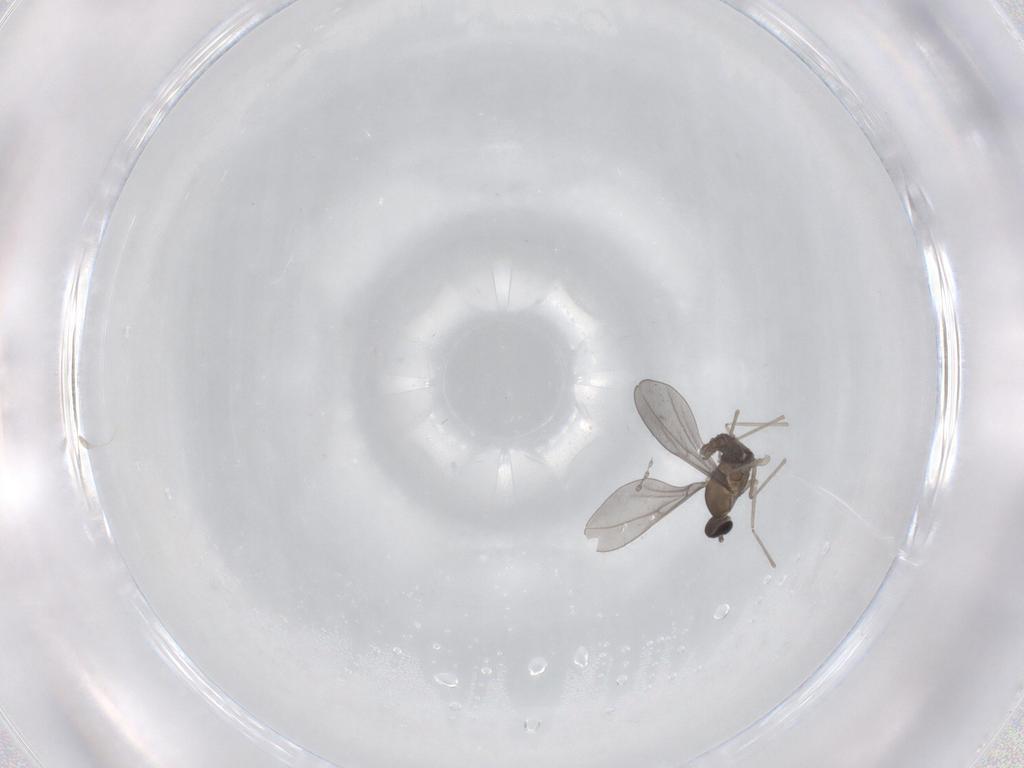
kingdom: Animalia
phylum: Arthropoda
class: Insecta
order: Diptera
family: Cecidomyiidae
